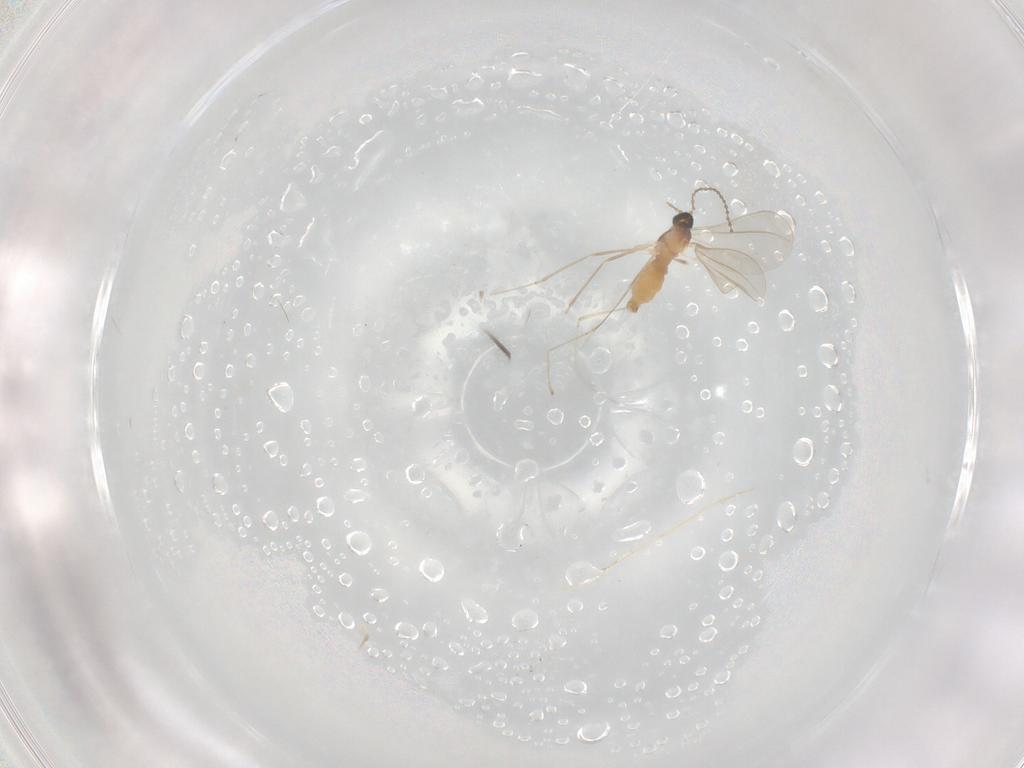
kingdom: Animalia
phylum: Arthropoda
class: Insecta
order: Diptera
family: Cecidomyiidae
